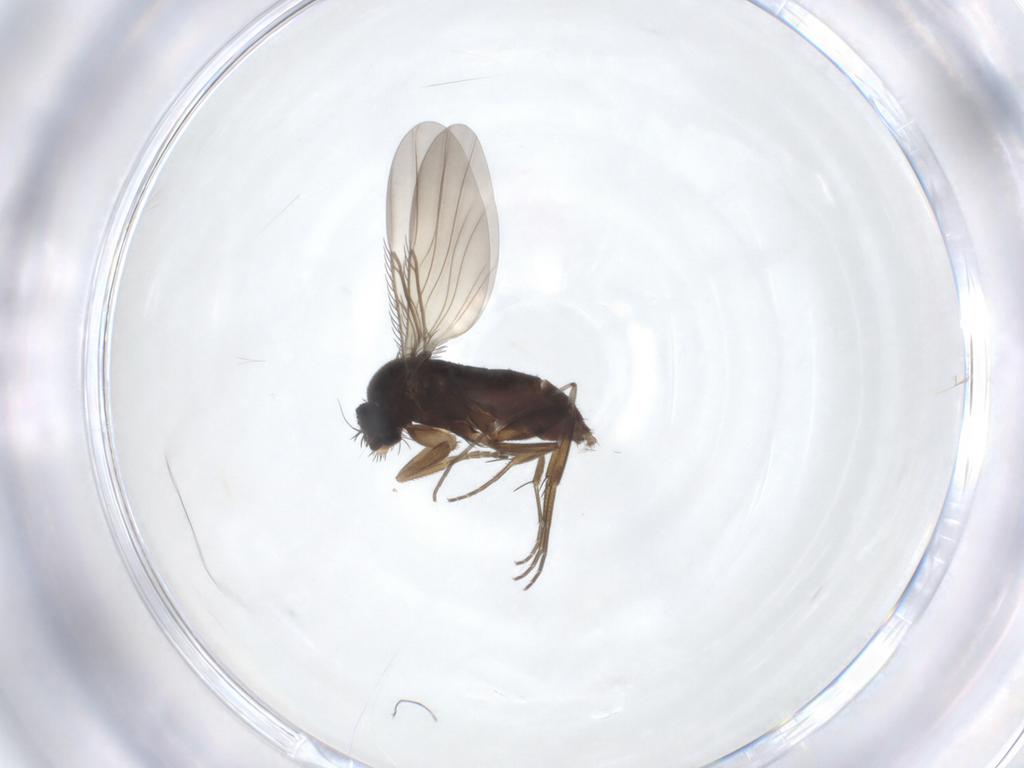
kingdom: Animalia
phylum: Arthropoda
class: Insecta
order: Diptera
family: Phoridae
